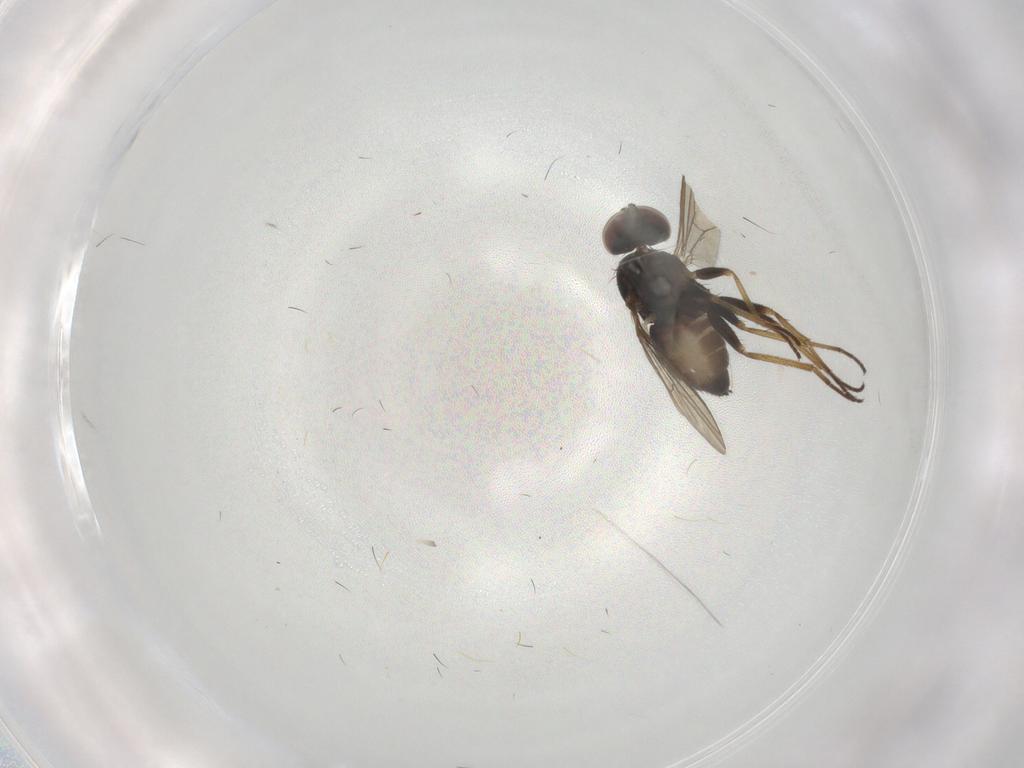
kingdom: Animalia
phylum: Arthropoda
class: Insecta
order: Diptera
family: Dolichopodidae
